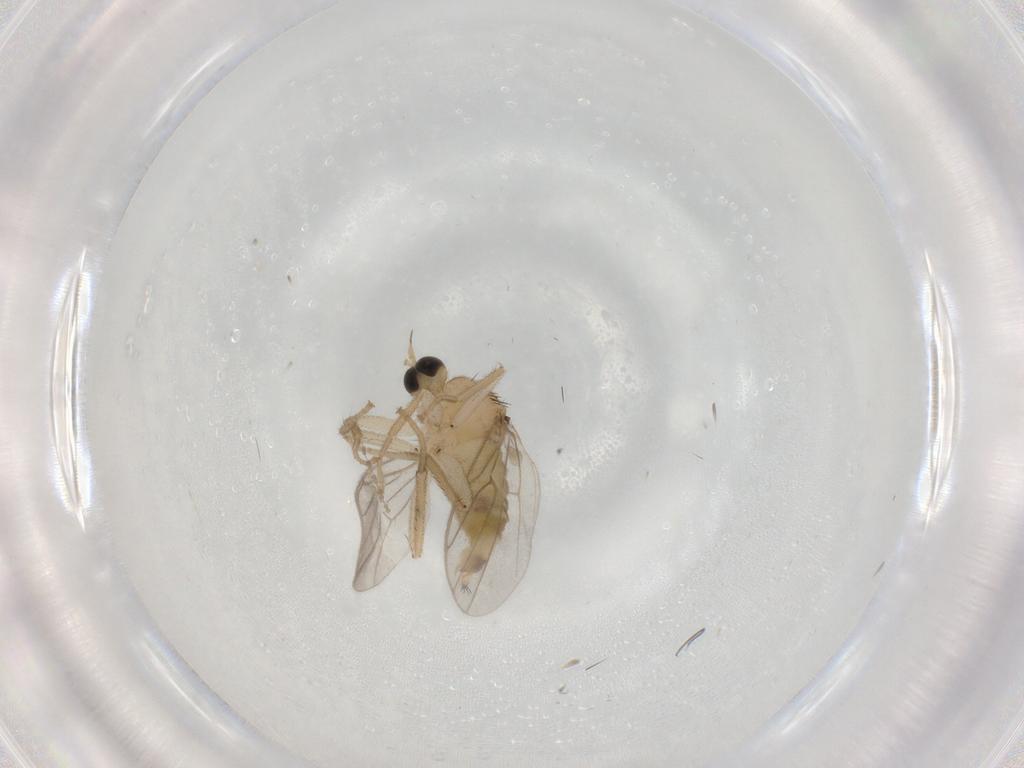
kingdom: Animalia
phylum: Arthropoda
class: Insecta
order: Diptera
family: Hybotidae
